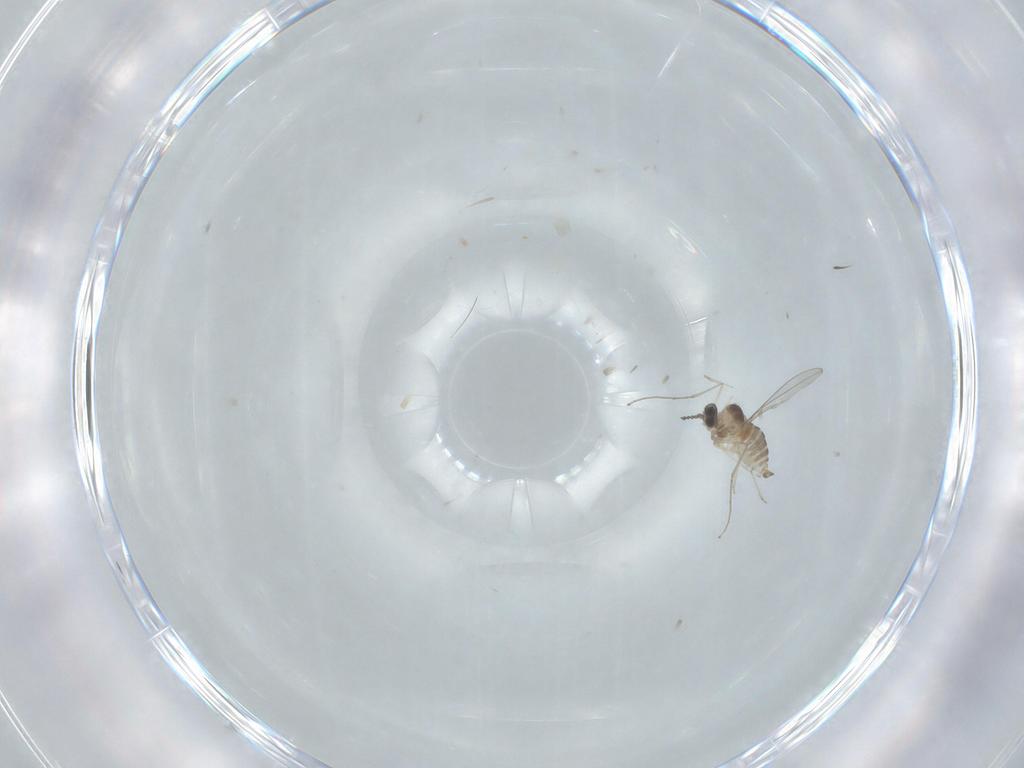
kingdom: Animalia
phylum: Arthropoda
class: Insecta
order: Diptera
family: Cecidomyiidae
